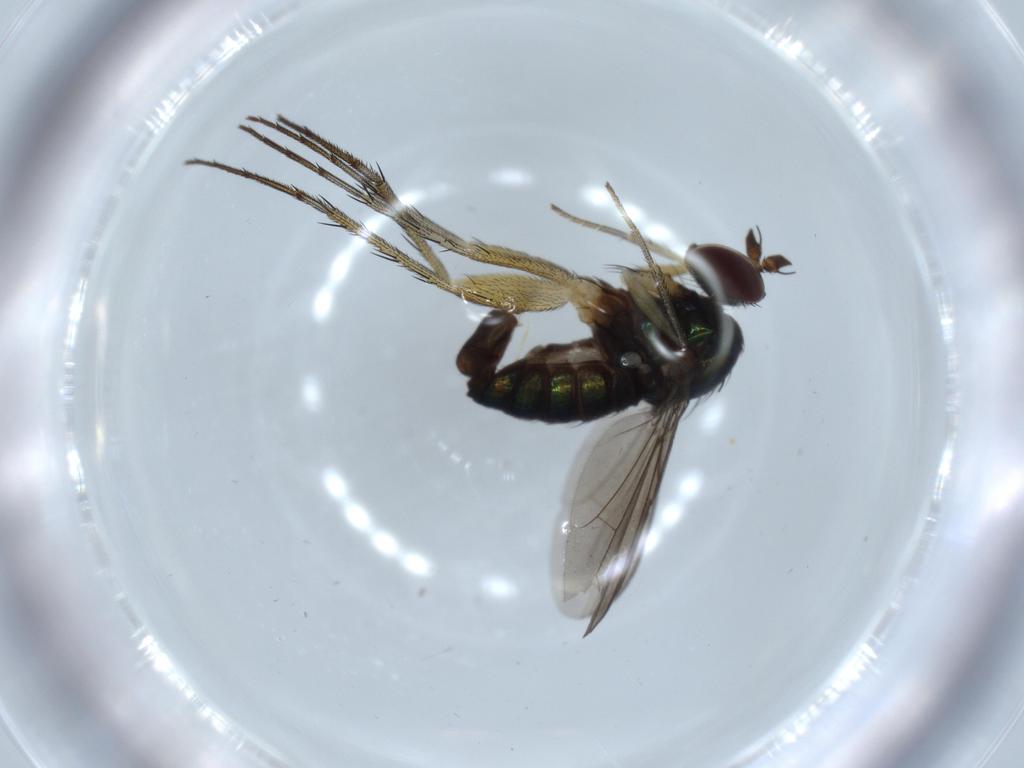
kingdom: Animalia
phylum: Arthropoda
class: Insecta
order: Diptera
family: Dolichopodidae
